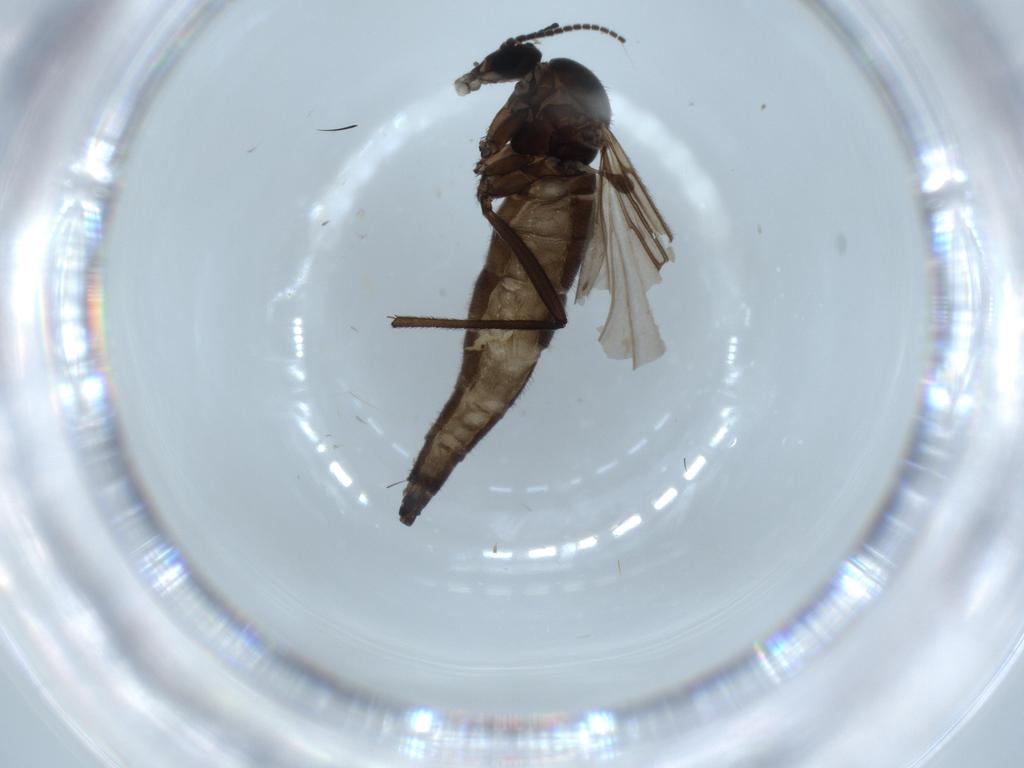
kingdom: Animalia
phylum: Arthropoda
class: Insecta
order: Diptera
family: Sciaridae
